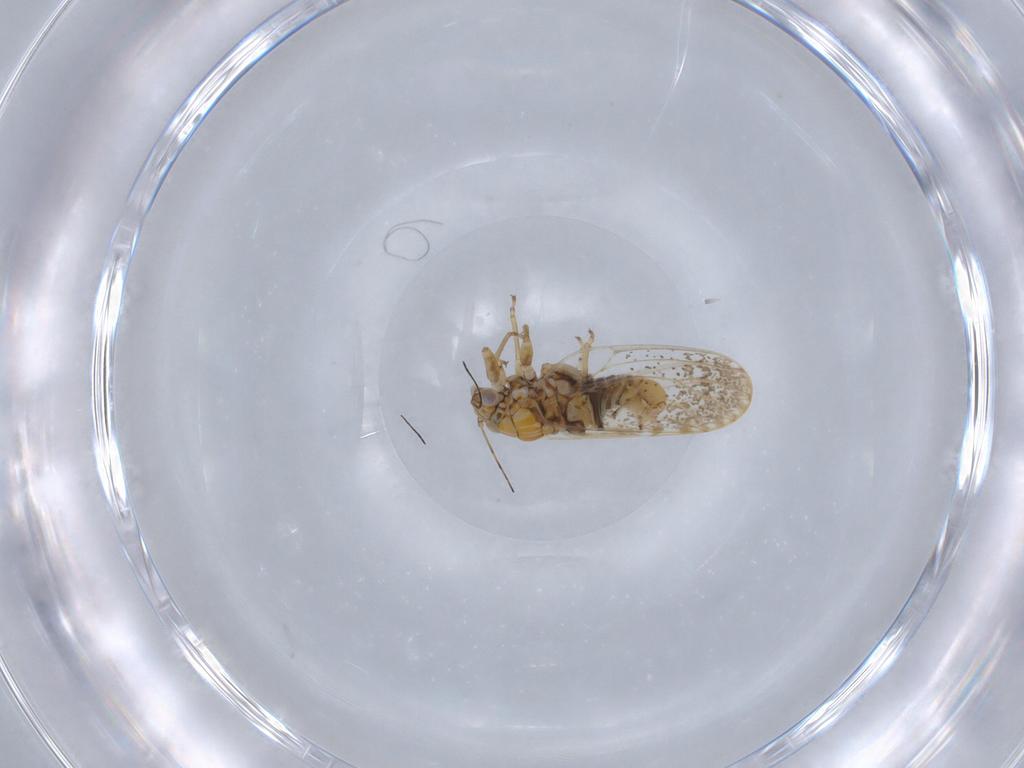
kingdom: Animalia
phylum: Arthropoda
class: Insecta
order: Hemiptera
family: Psyllidae
